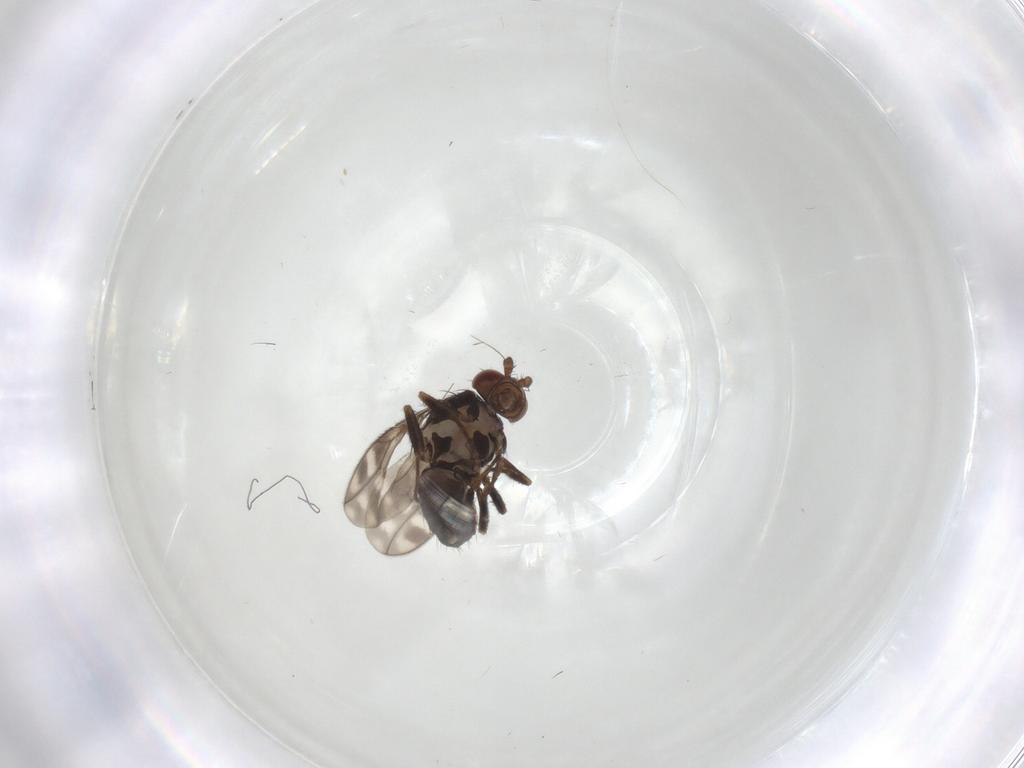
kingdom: Animalia
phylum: Arthropoda
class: Insecta
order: Diptera
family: Sphaeroceridae
